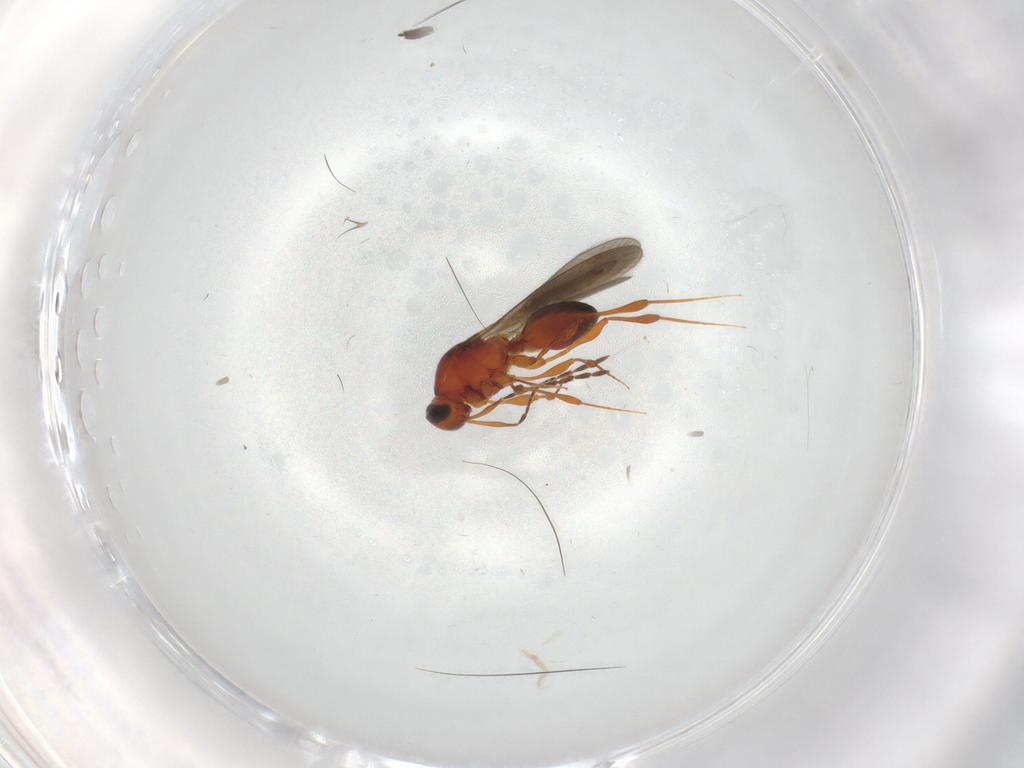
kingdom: Animalia
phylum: Arthropoda
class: Insecta
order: Hymenoptera
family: Platygastridae
